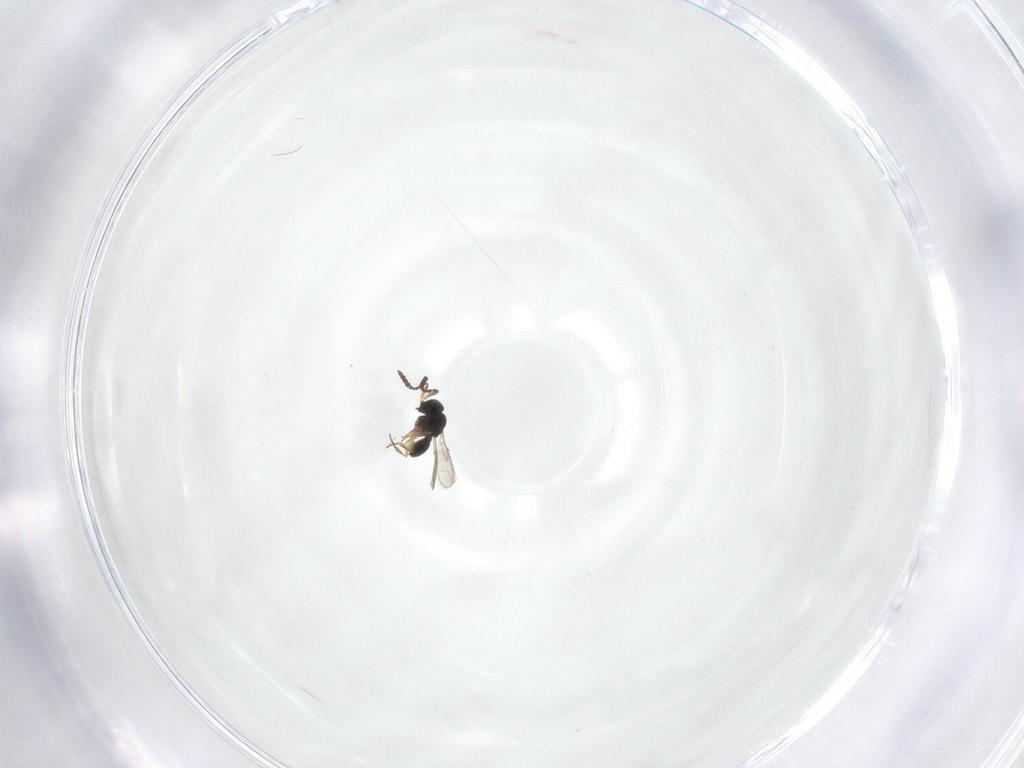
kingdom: Animalia
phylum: Arthropoda
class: Insecta
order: Hymenoptera
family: Scelionidae
